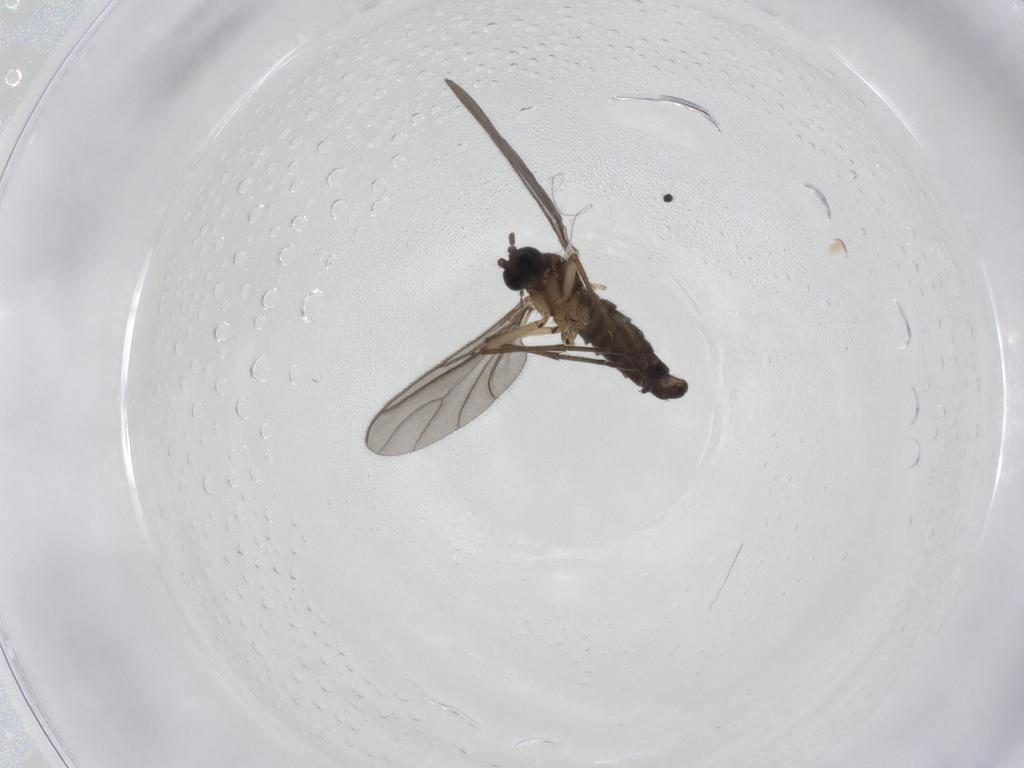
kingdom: Animalia
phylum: Arthropoda
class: Insecta
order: Diptera
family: Sciaridae
